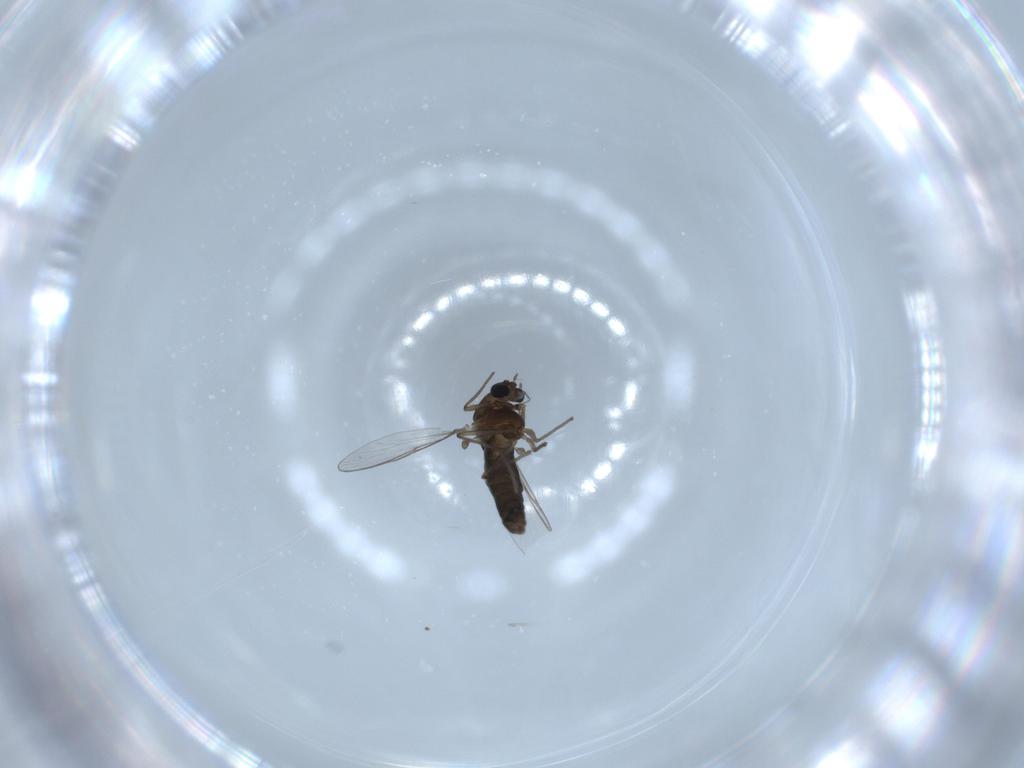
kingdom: Animalia
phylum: Arthropoda
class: Insecta
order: Diptera
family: Chironomidae
